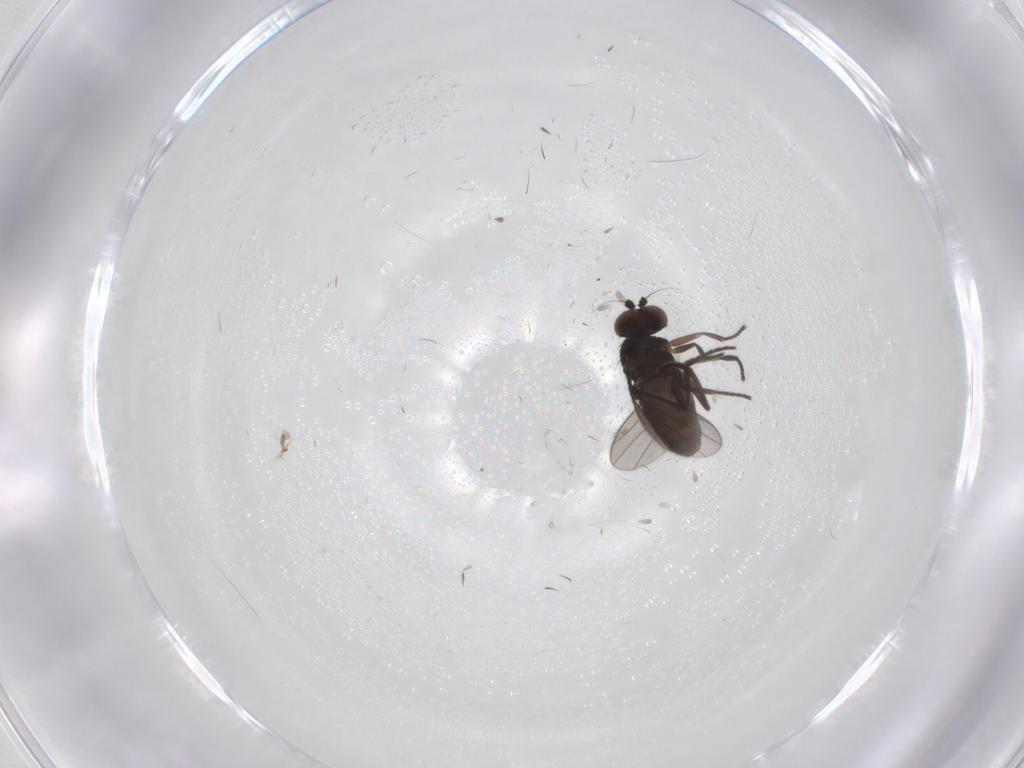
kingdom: Animalia
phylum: Arthropoda
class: Insecta
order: Diptera
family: Dolichopodidae
